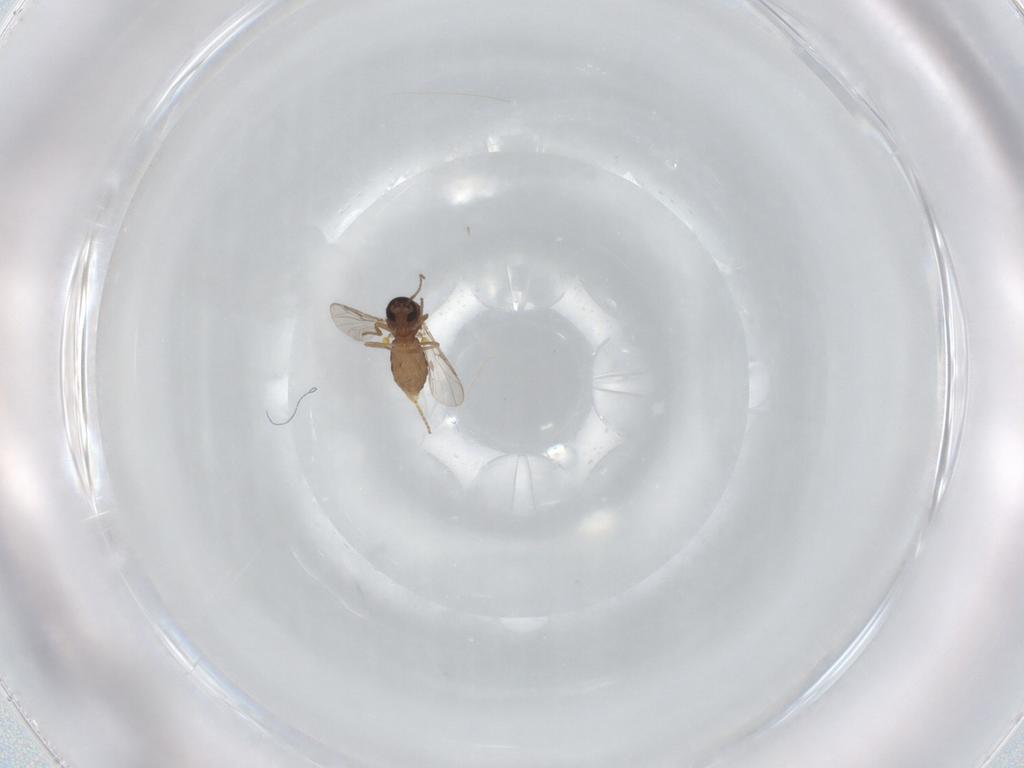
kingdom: Animalia
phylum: Arthropoda
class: Insecta
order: Diptera
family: Ceratopogonidae
